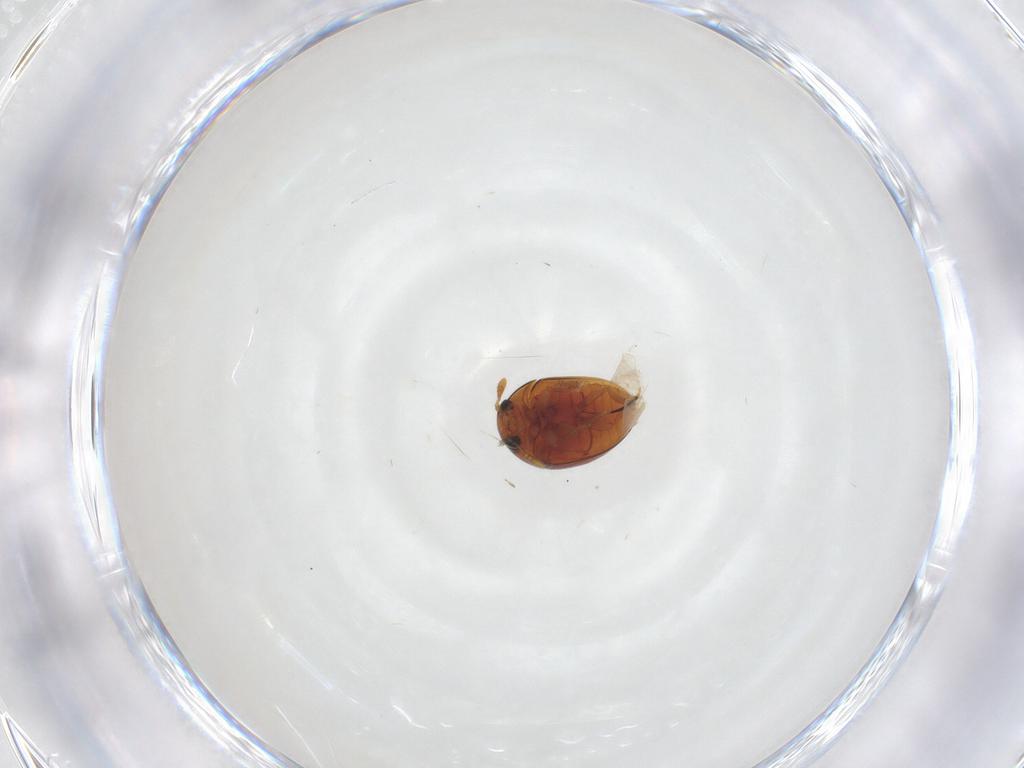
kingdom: Animalia
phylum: Arthropoda
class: Insecta
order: Coleoptera
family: Phalacridae
